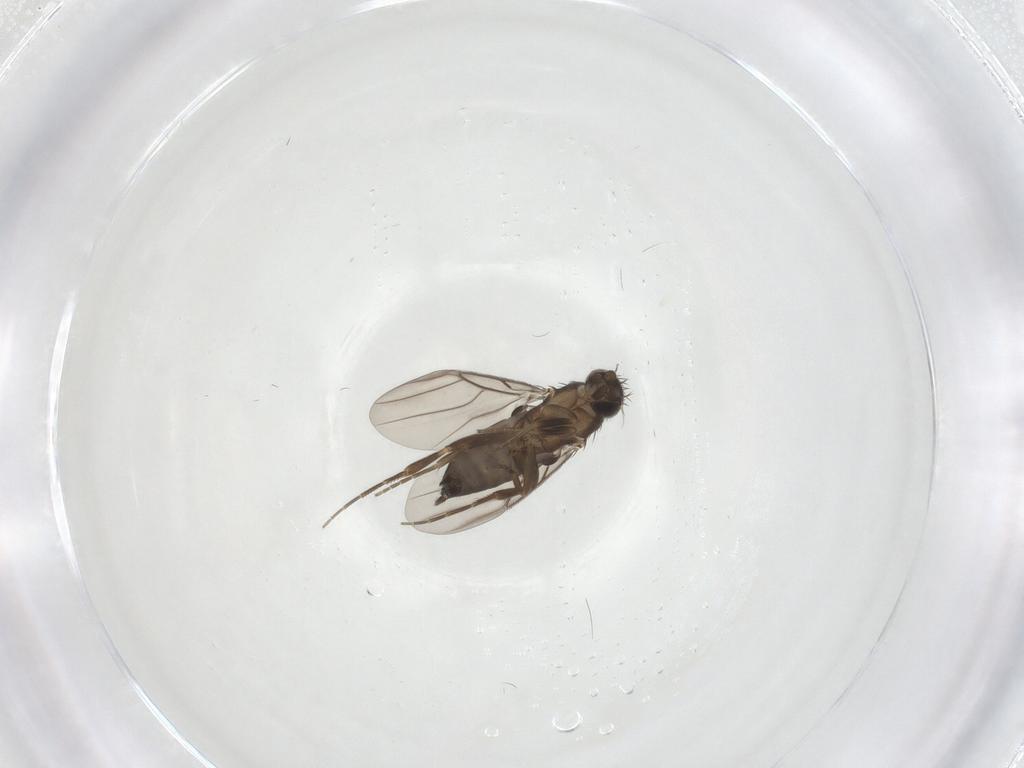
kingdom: Animalia
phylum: Arthropoda
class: Insecta
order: Diptera
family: Phoridae
